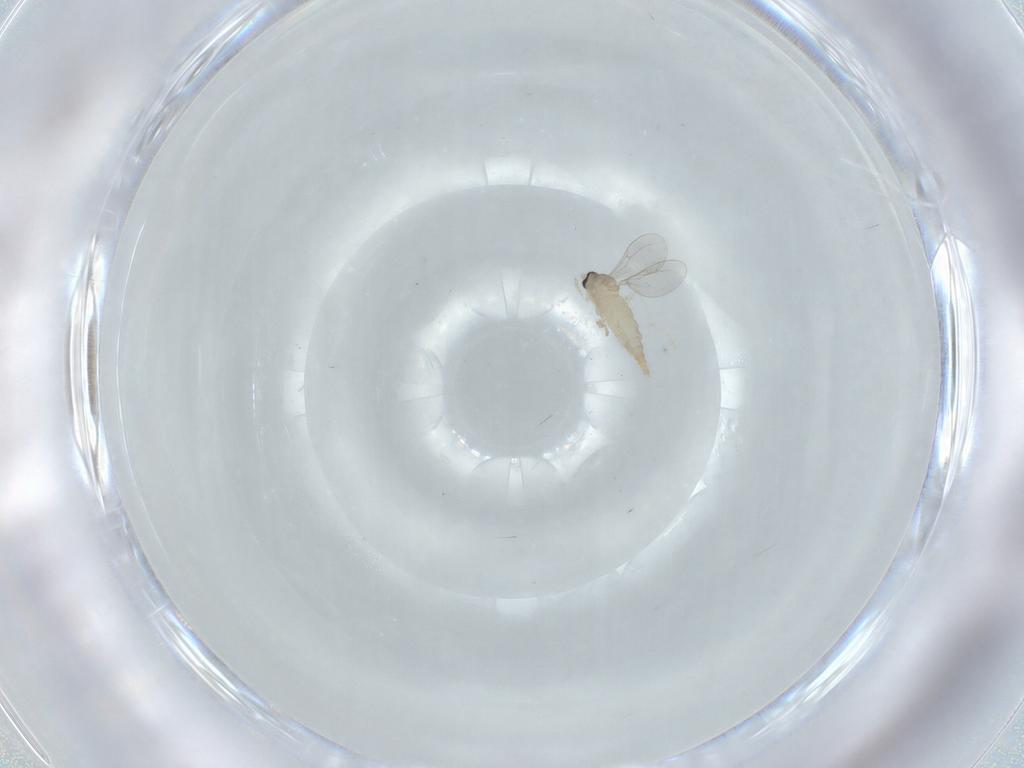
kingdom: Animalia
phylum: Arthropoda
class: Insecta
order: Diptera
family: Cecidomyiidae
